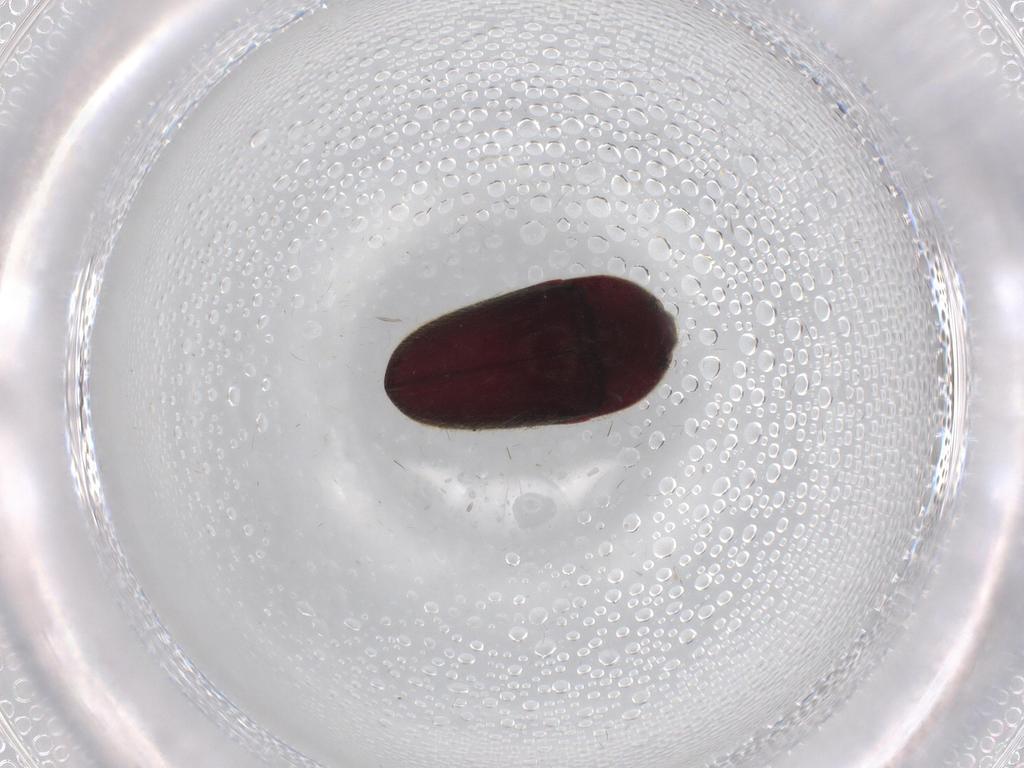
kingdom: Animalia
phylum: Arthropoda
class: Insecta
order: Coleoptera
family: Throscidae
